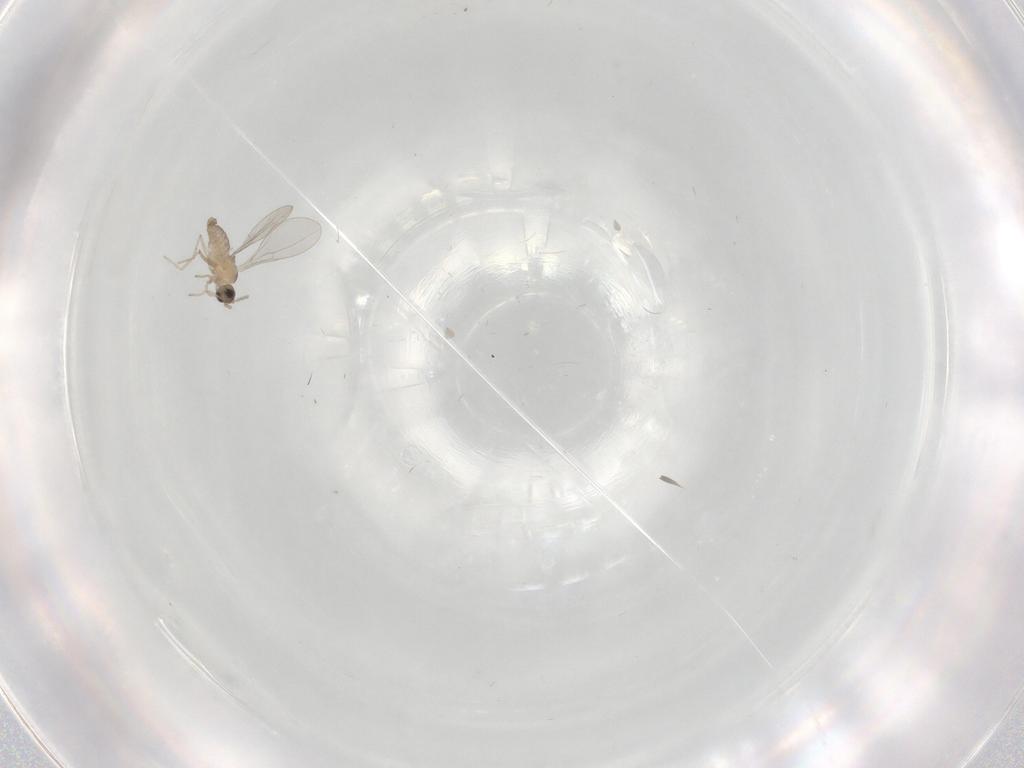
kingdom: Animalia
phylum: Arthropoda
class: Insecta
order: Diptera
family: Cecidomyiidae
